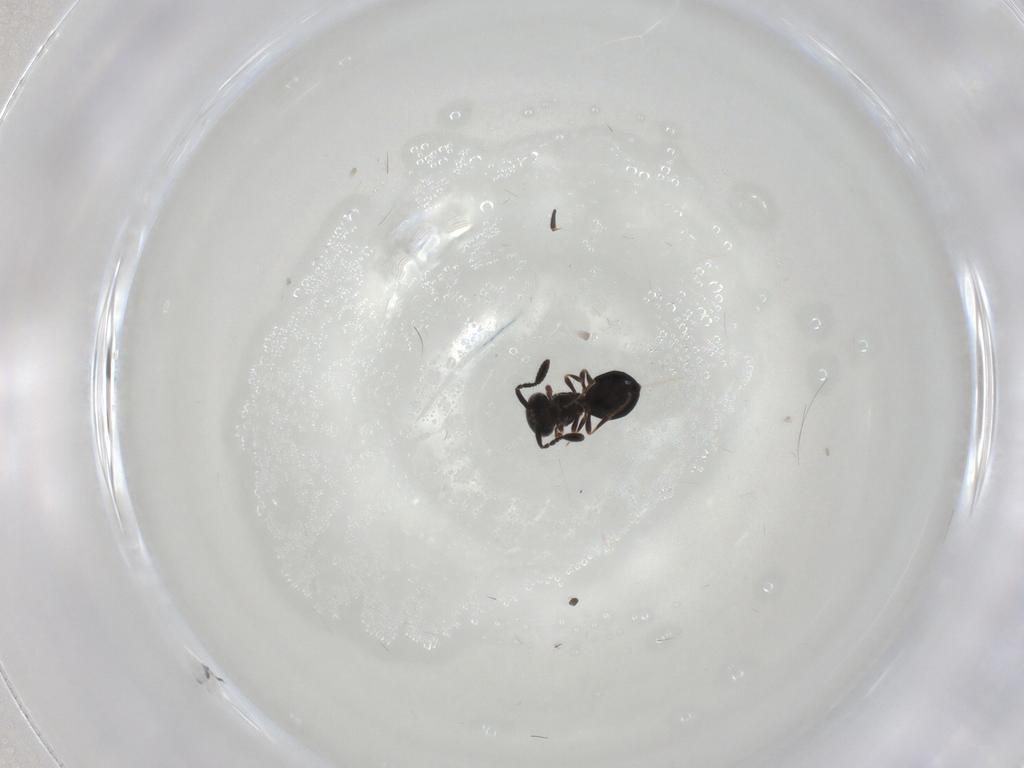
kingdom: Animalia
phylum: Arthropoda
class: Insecta
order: Hymenoptera
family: Scelionidae
